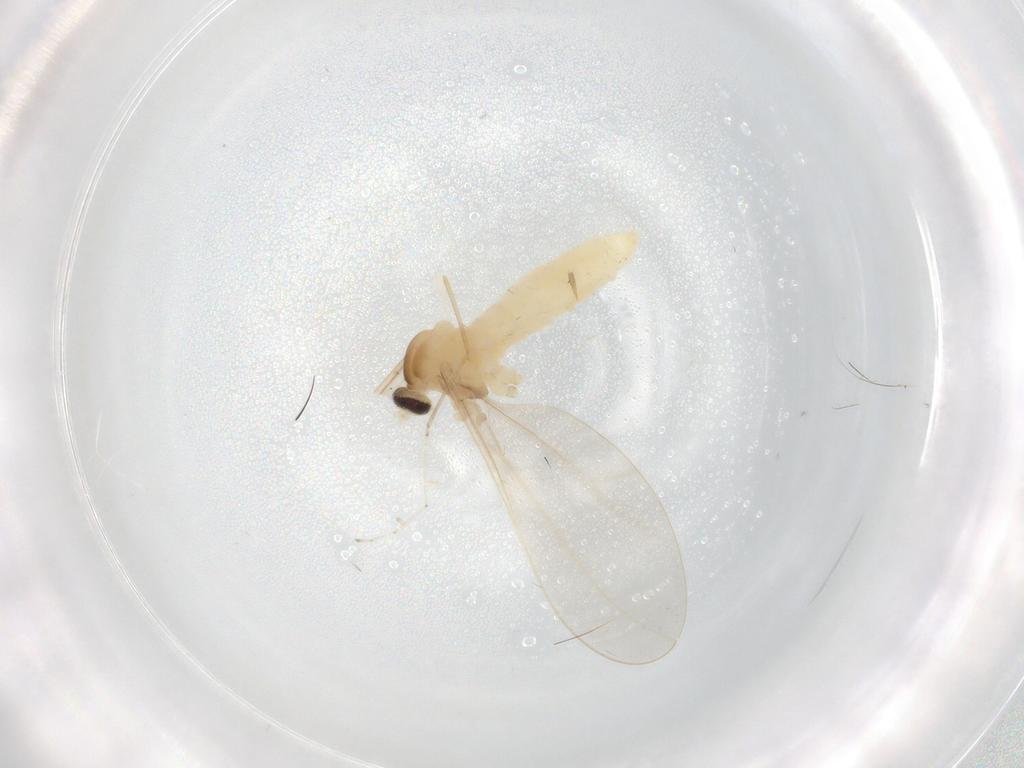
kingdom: Animalia
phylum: Arthropoda
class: Insecta
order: Diptera
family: Cecidomyiidae
